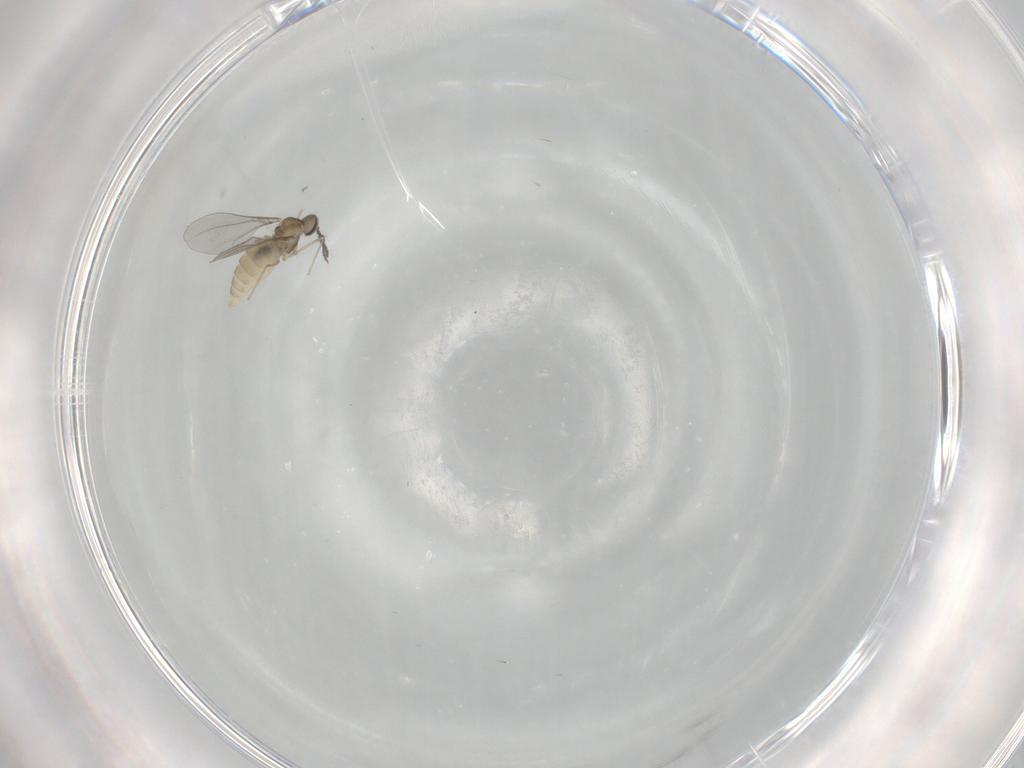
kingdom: Animalia
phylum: Arthropoda
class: Insecta
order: Diptera
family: Cecidomyiidae
